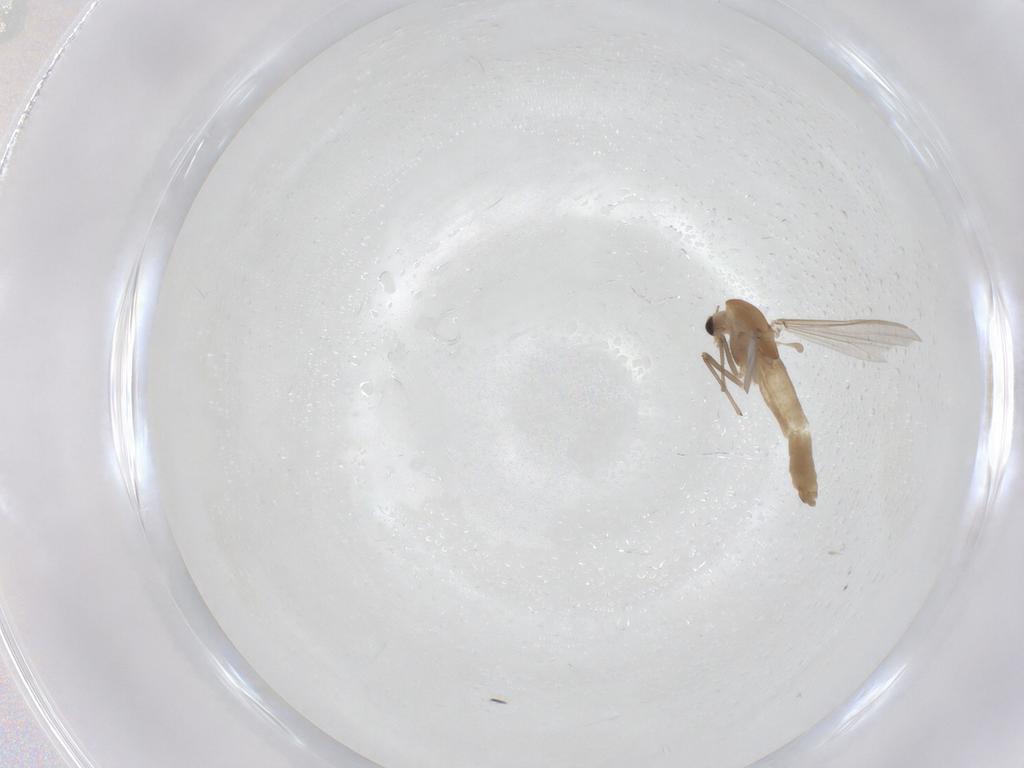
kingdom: Animalia
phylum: Arthropoda
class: Insecta
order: Diptera
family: Chironomidae
